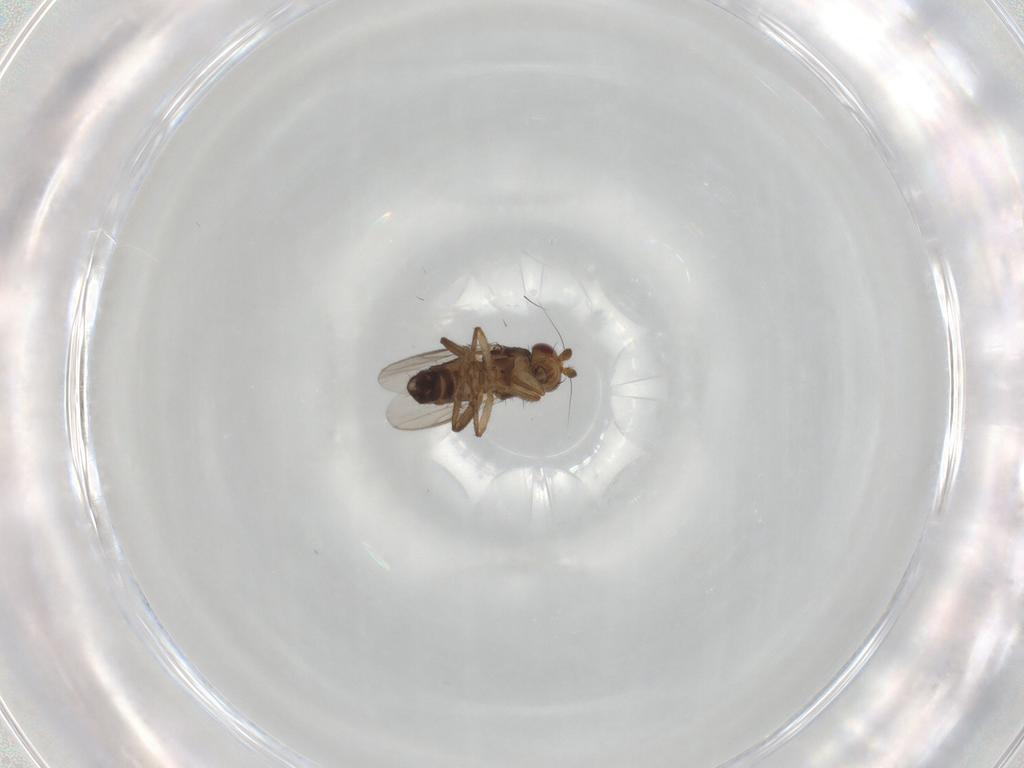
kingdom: Animalia
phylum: Arthropoda
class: Insecta
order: Diptera
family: Dolichopodidae
